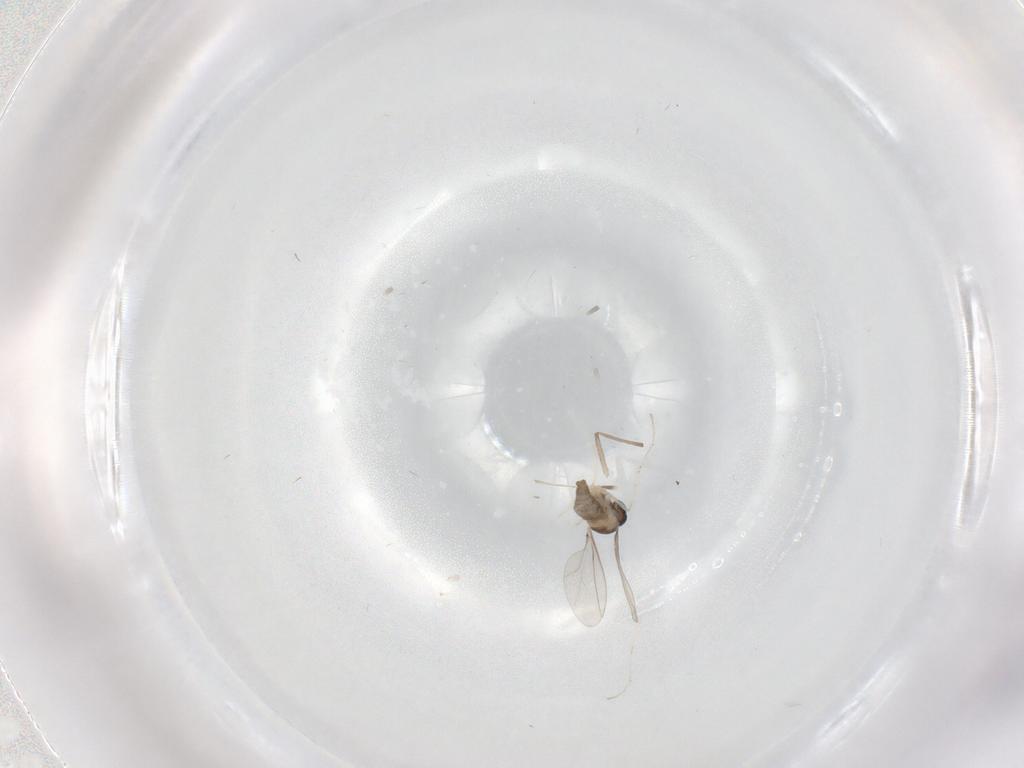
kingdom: Animalia
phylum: Arthropoda
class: Insecta
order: Diptera
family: Cecidomyiidae
